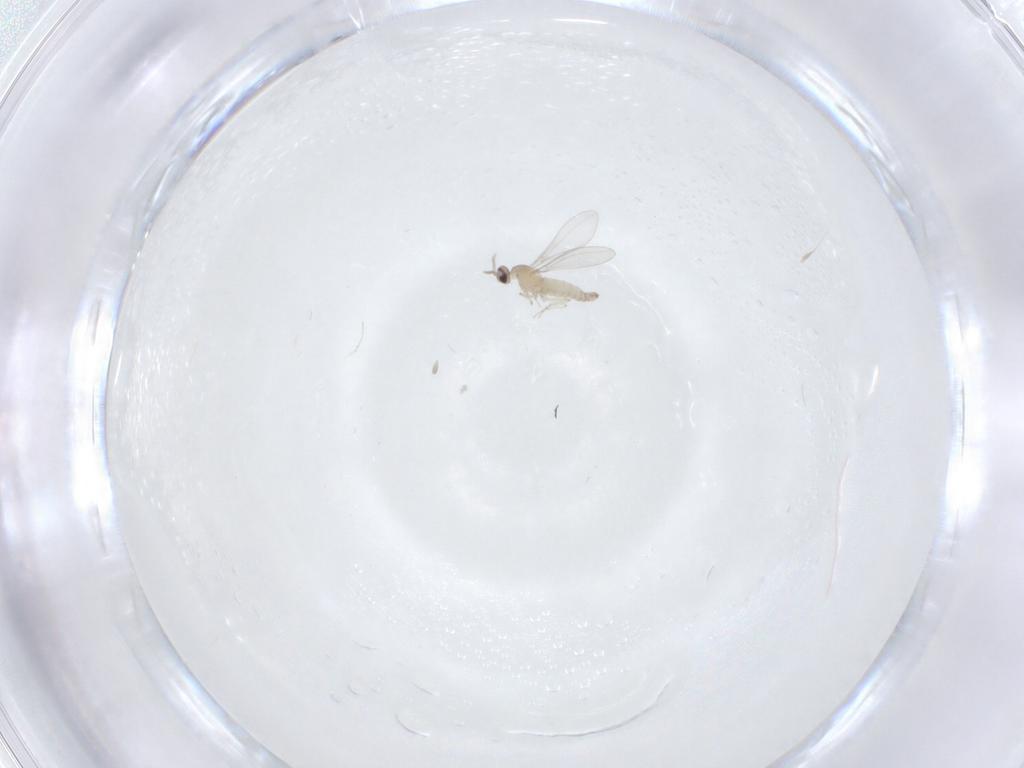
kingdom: Animalia
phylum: Arthropoda
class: Insecta
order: Diptera
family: Cecidomyiidae
